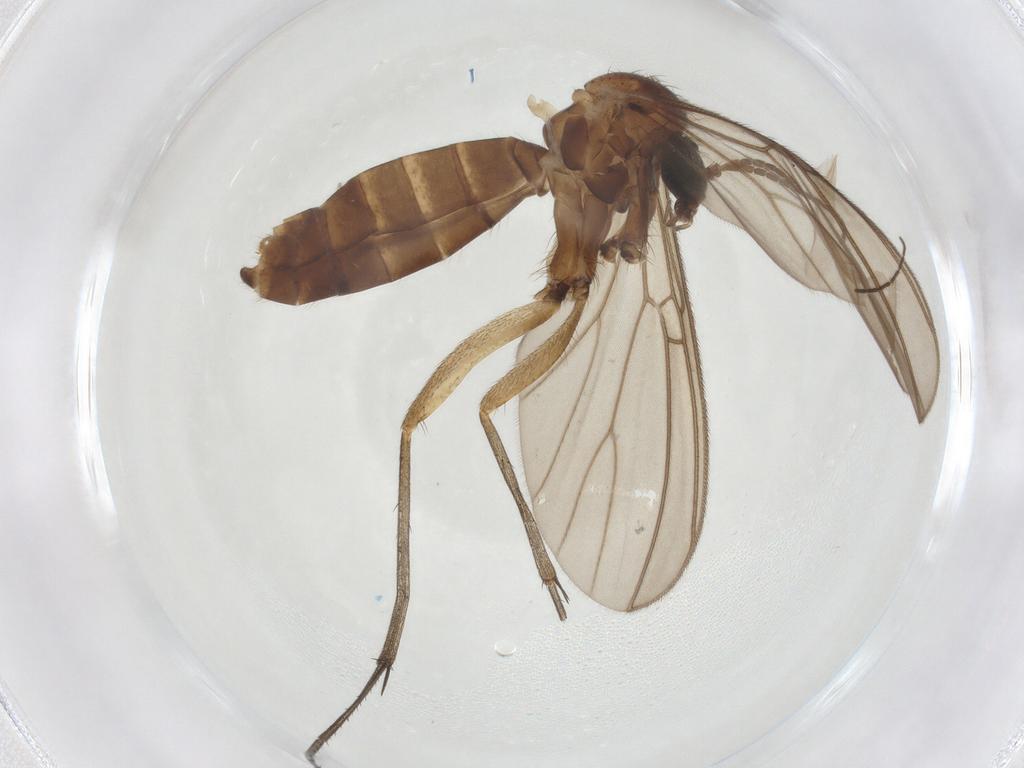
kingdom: Animalia
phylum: Arthropoda
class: Insecta
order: Diptera
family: Mycetophilidae
